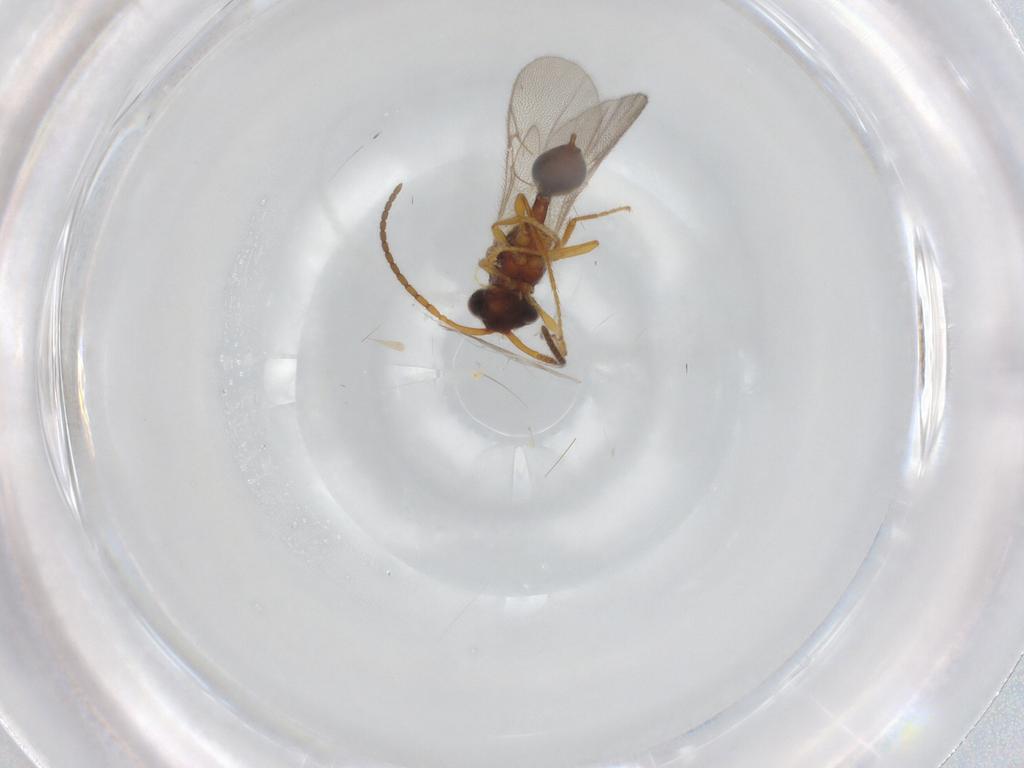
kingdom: Animalia
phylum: Arthropoda
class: Insecta
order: Hymenoptera
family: Diapriidae
